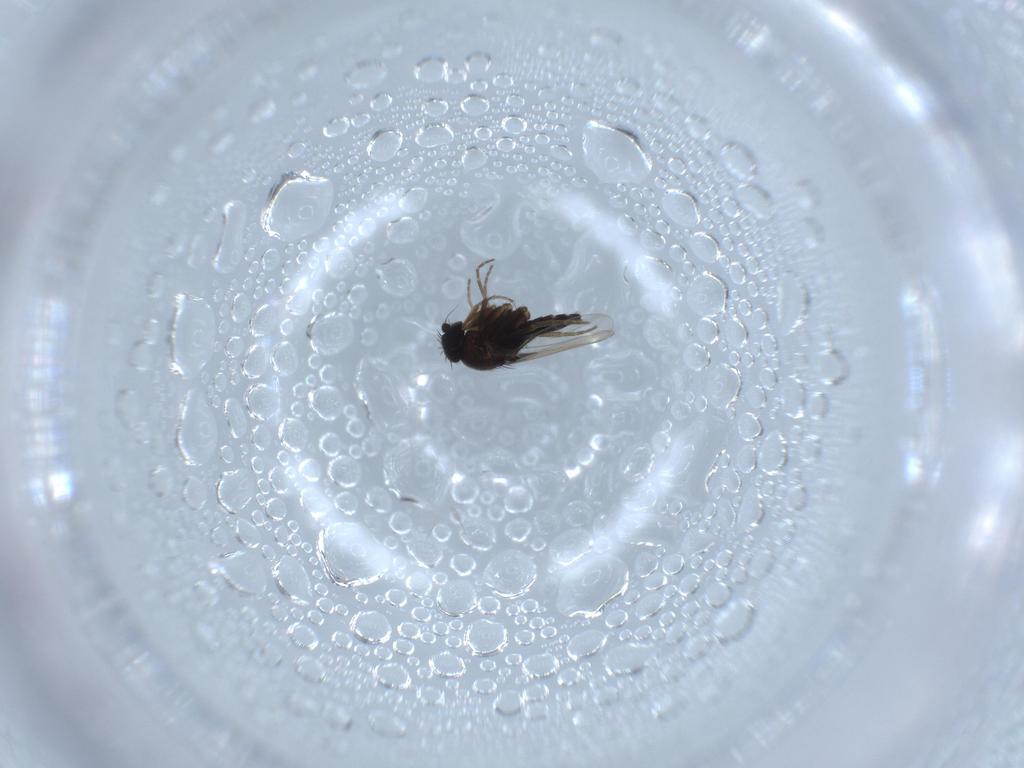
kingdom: Animalia
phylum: Arthropoda
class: Insecta
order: Diptera
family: Phoridae
